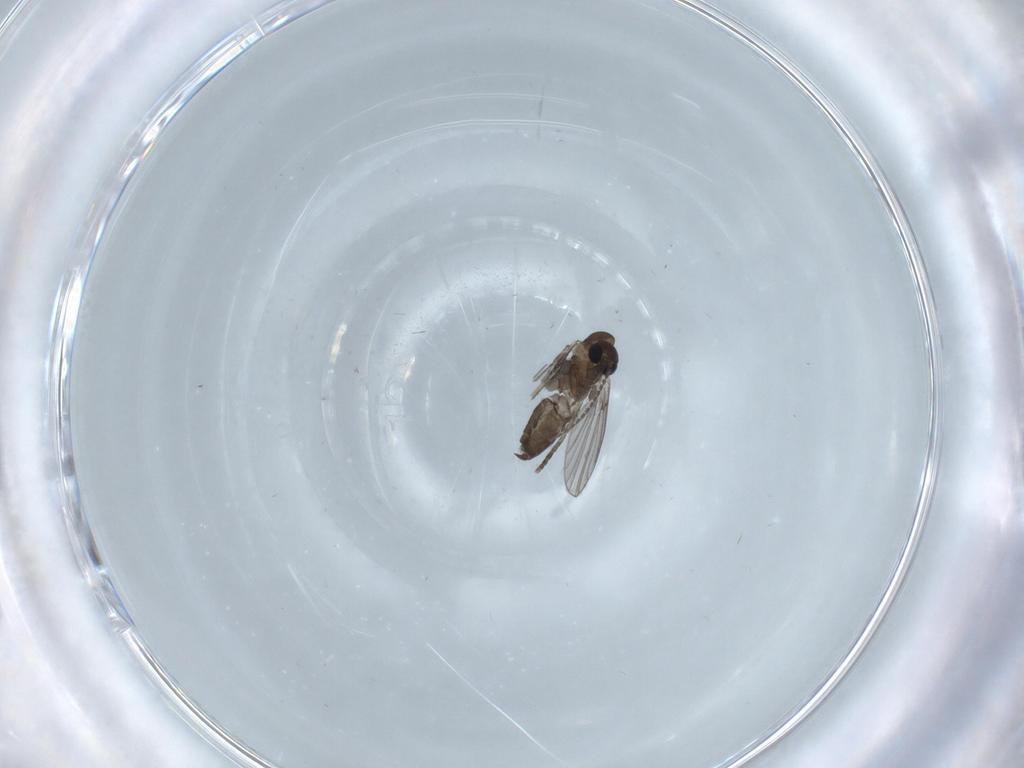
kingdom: Animalia
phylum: Arthropoda
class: Insecta
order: Diptera
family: Psychodidae
